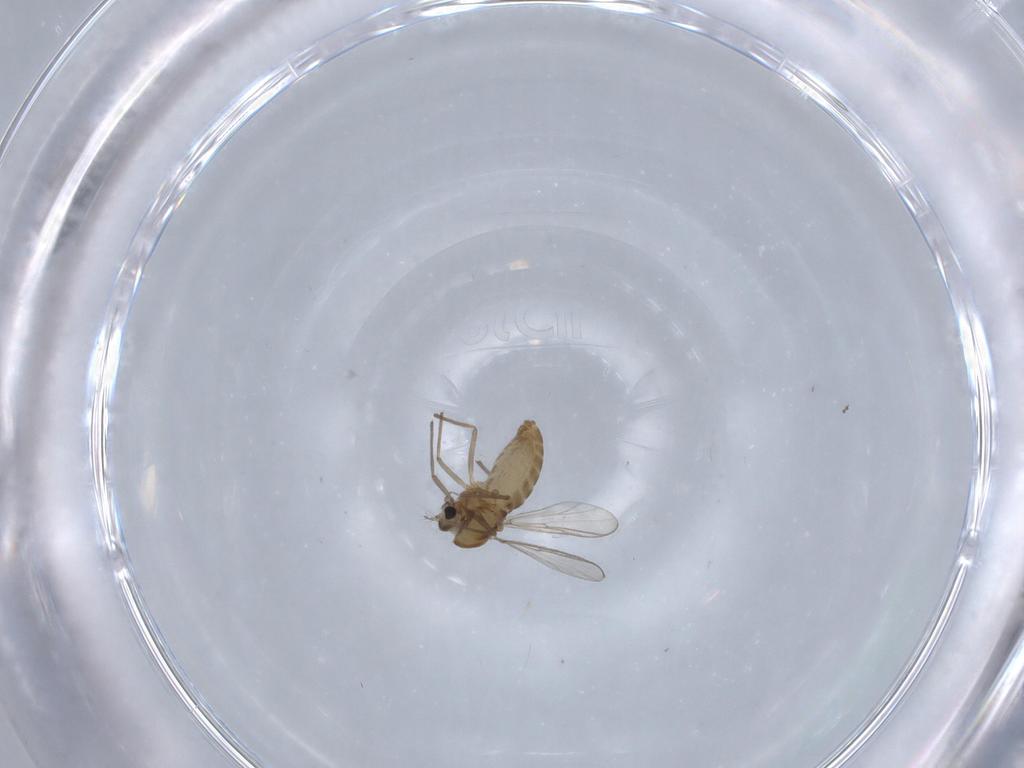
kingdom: Animalia
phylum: Arthropoda
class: Insecta
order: Diptera
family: Chironomidae
